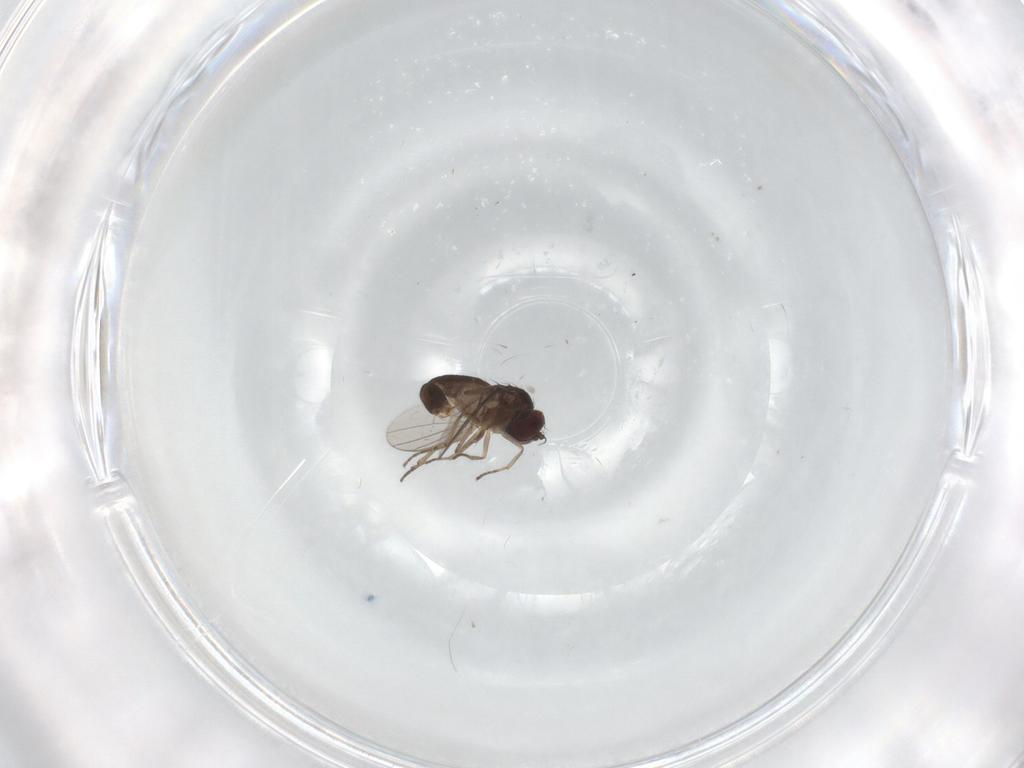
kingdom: Animalia
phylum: Arthropoda
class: Insecta
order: Diptera
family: Dolichopodidae
